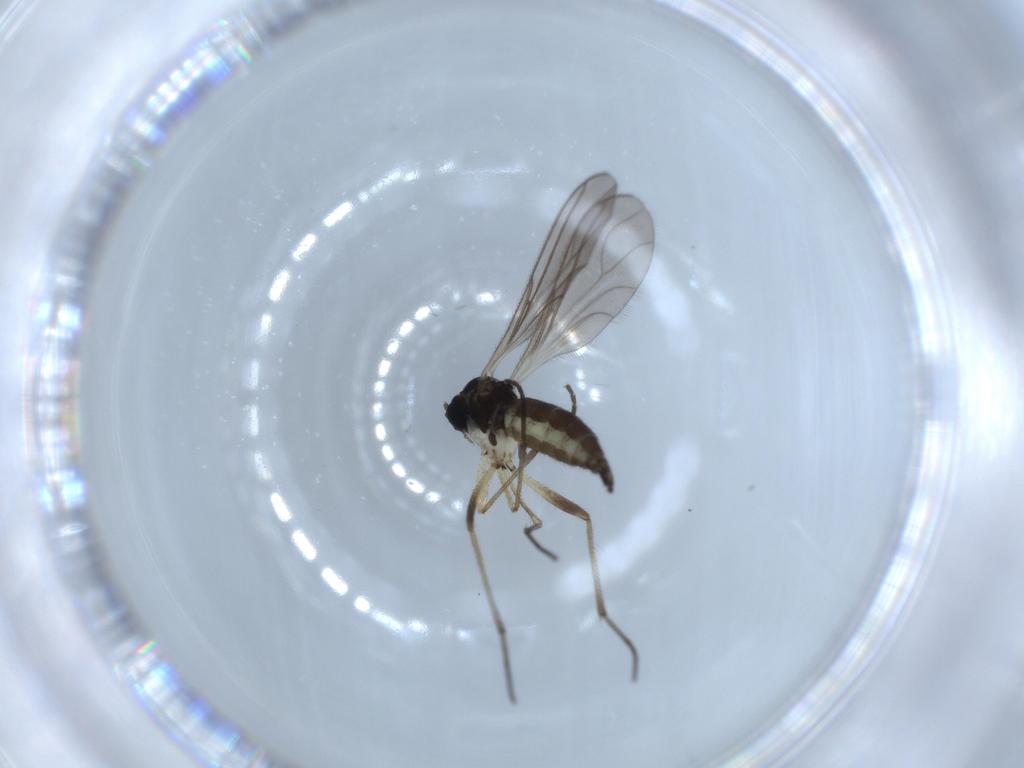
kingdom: Animalia
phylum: Arthropoda
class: Insecta
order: Diptera
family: Sciaridae
